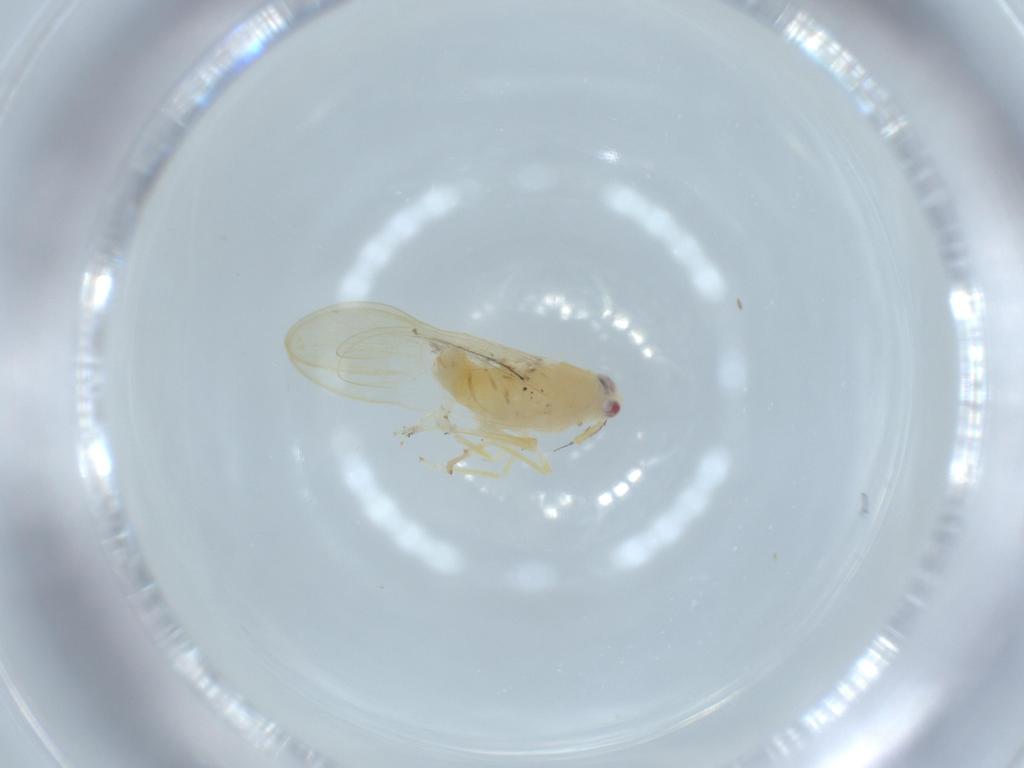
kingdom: Animalia
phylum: Arthropoda
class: Insecta
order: Hemiptera
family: Delphacidae
